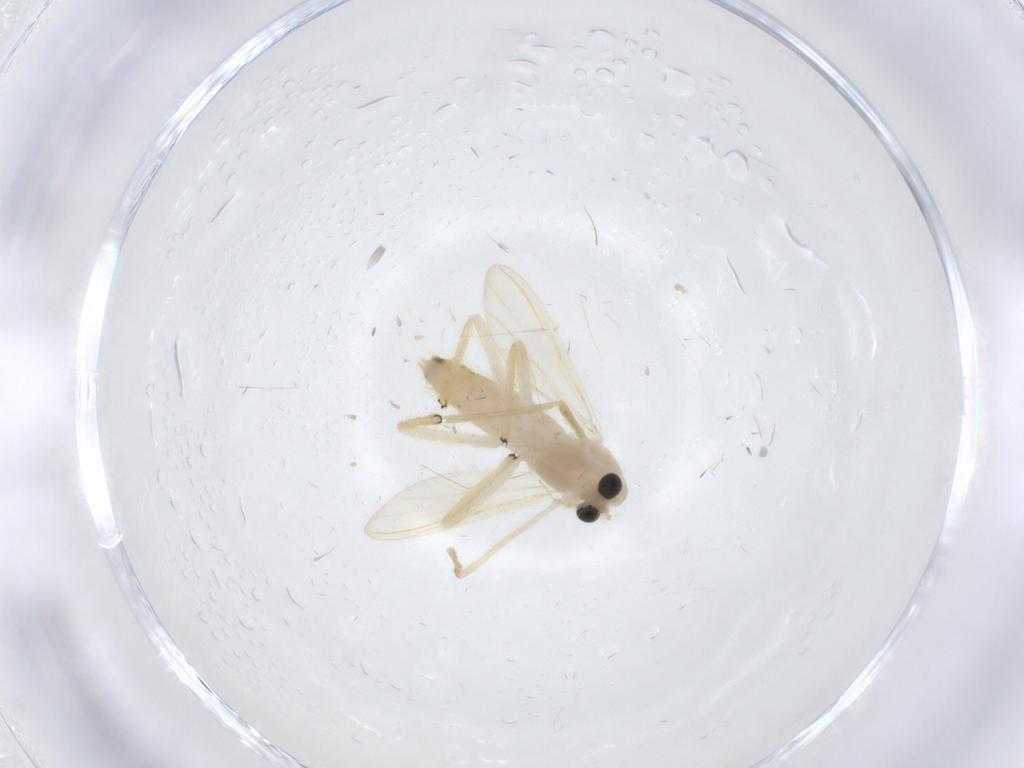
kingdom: Animalia
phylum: Arthropoda
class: Insecta
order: Diptera
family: Chironomidae
